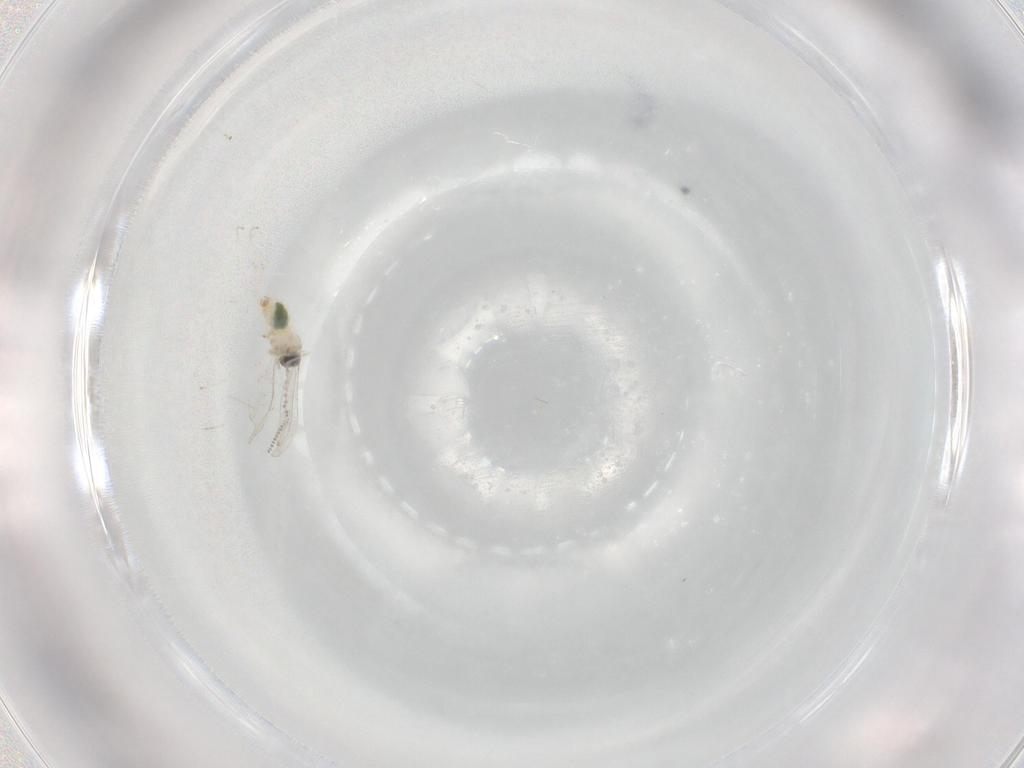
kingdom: Animalia
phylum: Arthropoda
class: Insecta
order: Diptera
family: Cecidomyiidae
